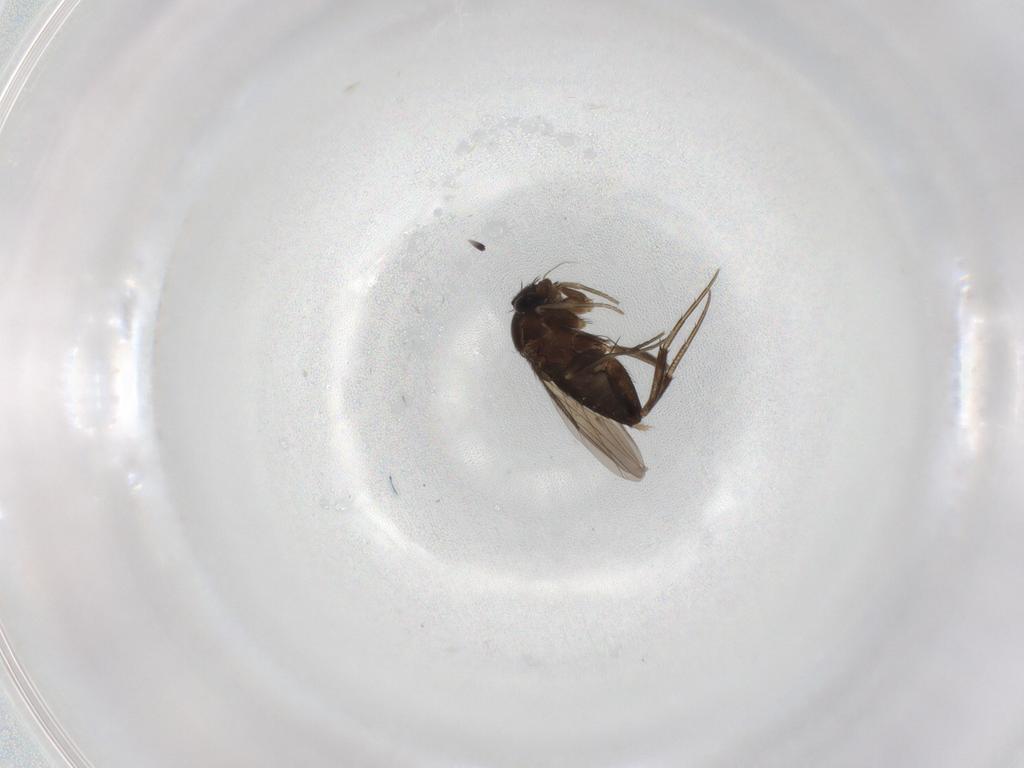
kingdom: Animalia
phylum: Arthropoda
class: Insecta
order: Diptera
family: Phoridae
